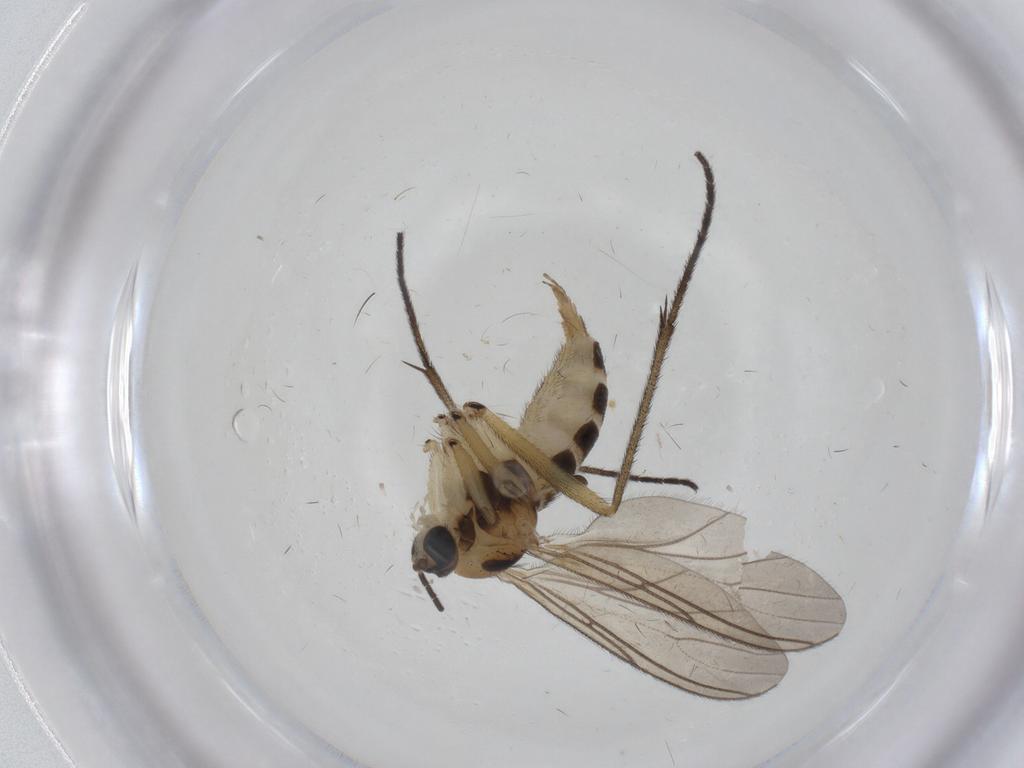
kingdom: Animalia
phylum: Arthropoda
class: Insecta
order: Diptera
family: Sciaridae
